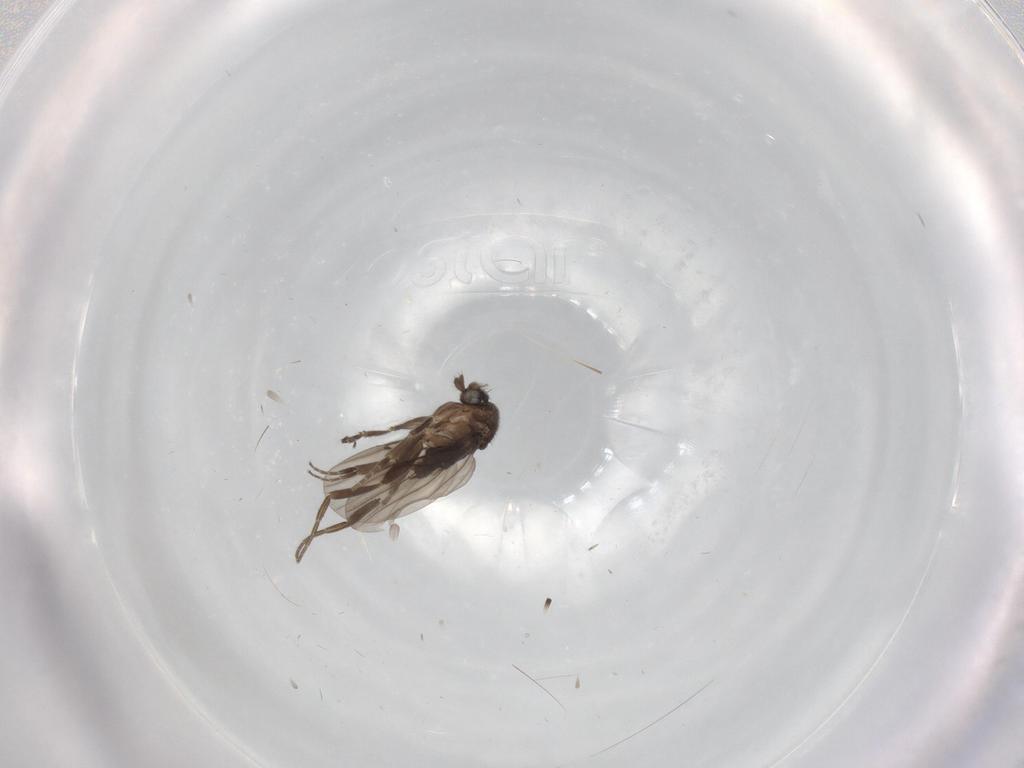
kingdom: Animalia
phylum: Arthropoda
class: Insecta
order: Diptera
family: Phoridae
